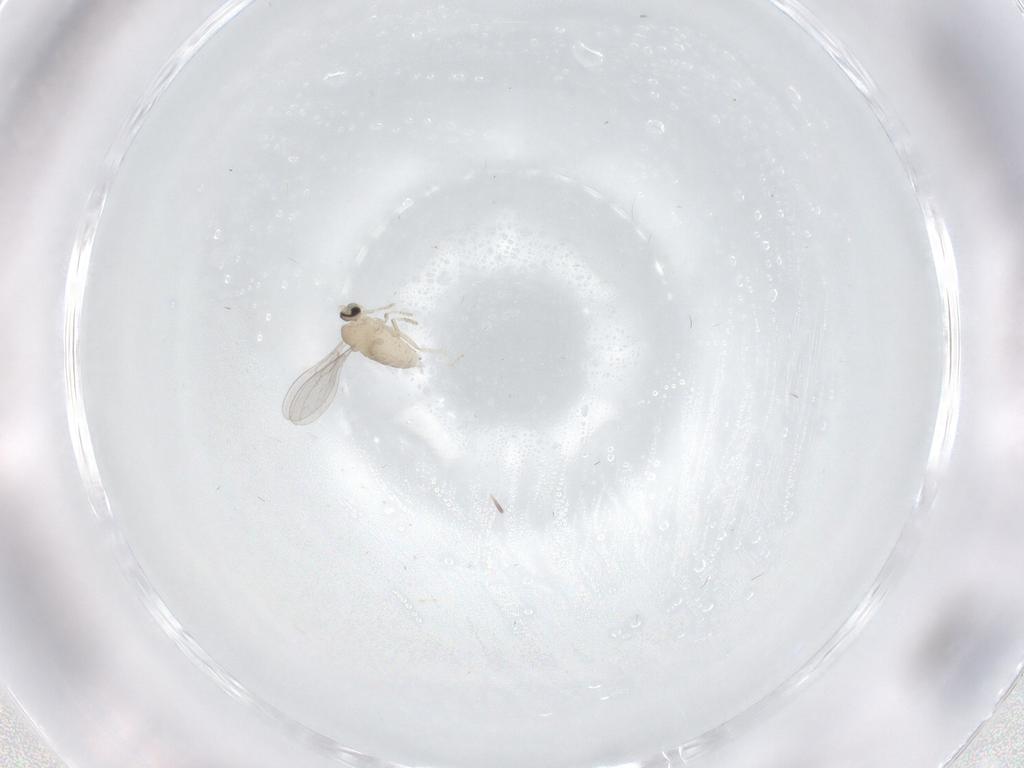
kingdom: Animalia
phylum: Arthropoda
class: Insecta
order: Diptera
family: Cecidomyiidae
